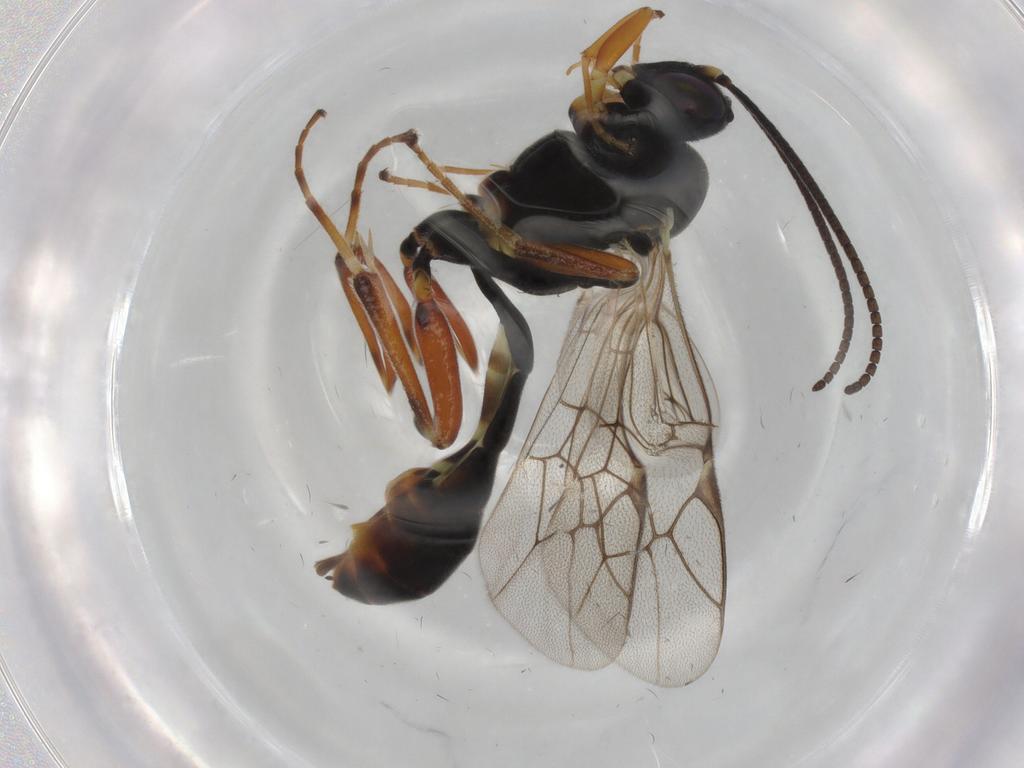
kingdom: Animalia
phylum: Arthropoda
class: Insecta
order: Hymenoptera
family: Ichneumonidae
